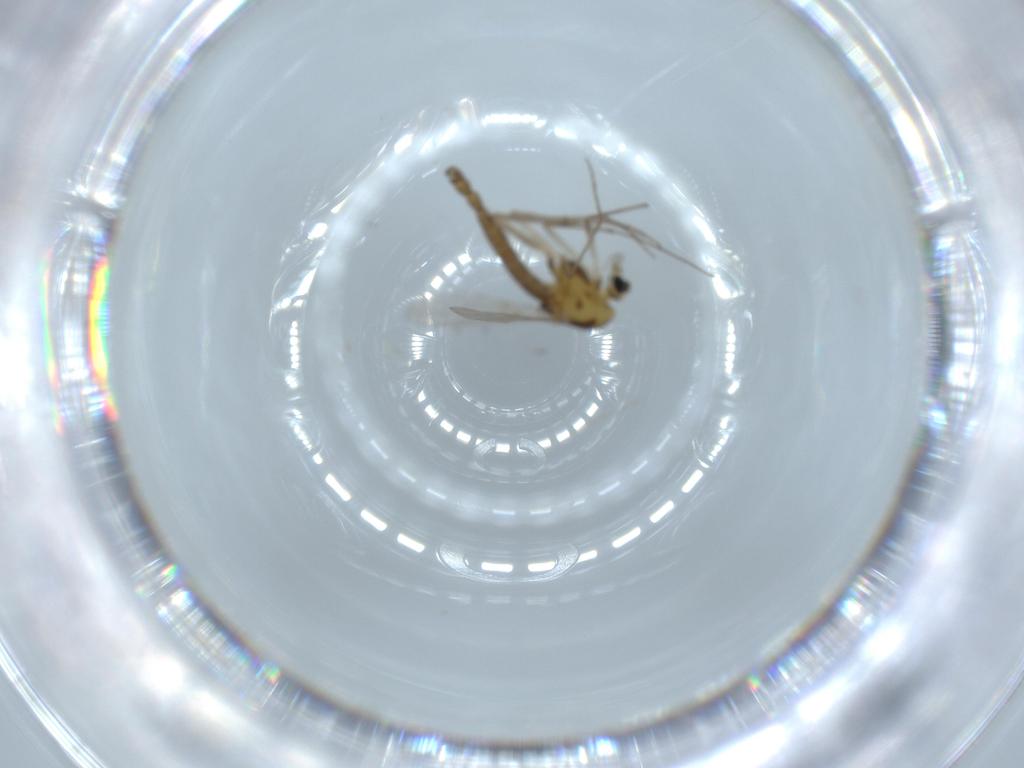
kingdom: Animalia
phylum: Arthropoda
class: Insecta
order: Diptera
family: Chironomidae
